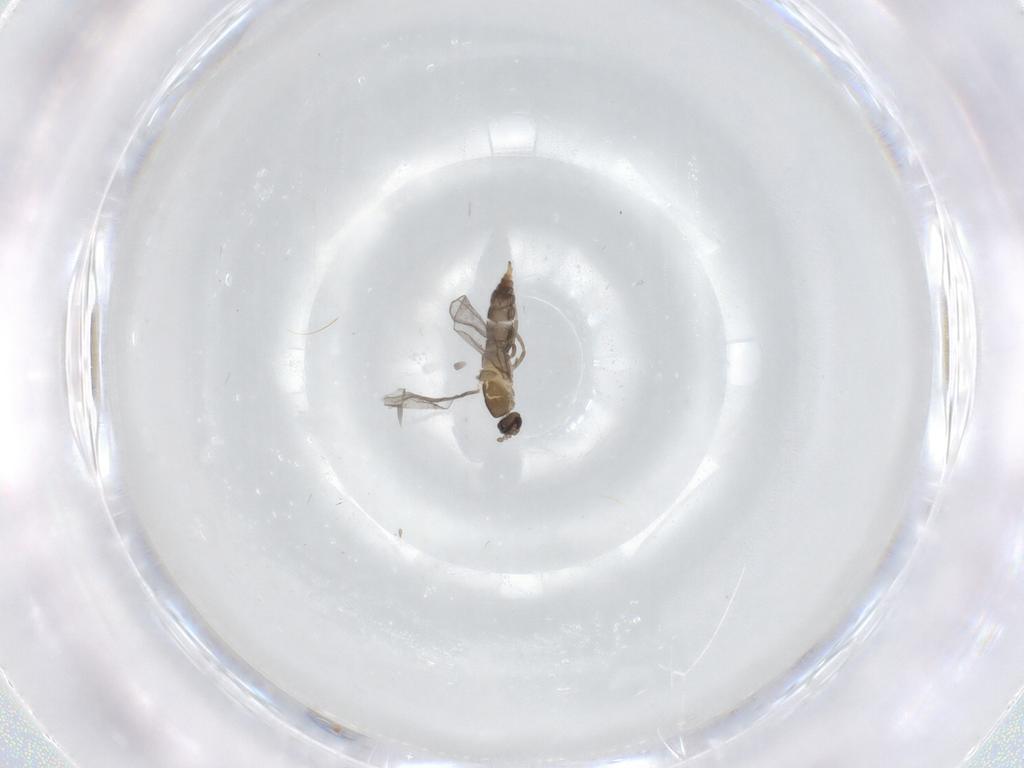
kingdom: Animalia
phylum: Arthropoda
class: Insecta
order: Diptera
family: Cecidomyiidae
